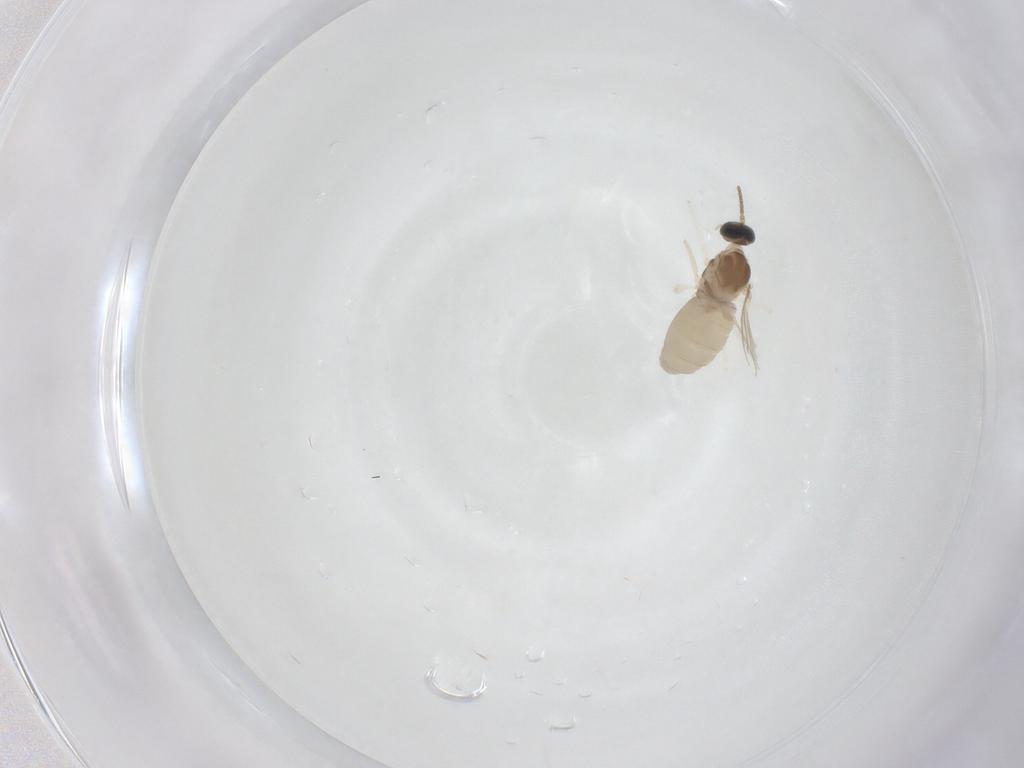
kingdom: Animalia
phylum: Arthropoda
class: Insecta
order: Diptera
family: Cecidomyiidae
